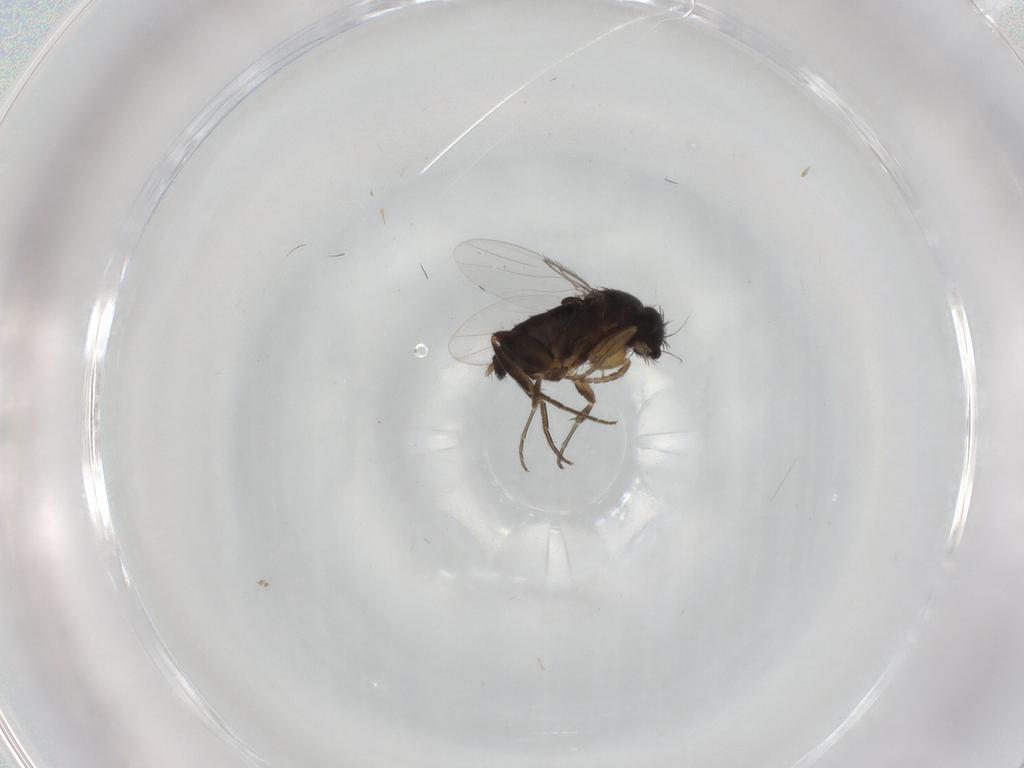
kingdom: Animalia
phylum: Arthropoda
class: Insecta
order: Diptera
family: Phoridae
